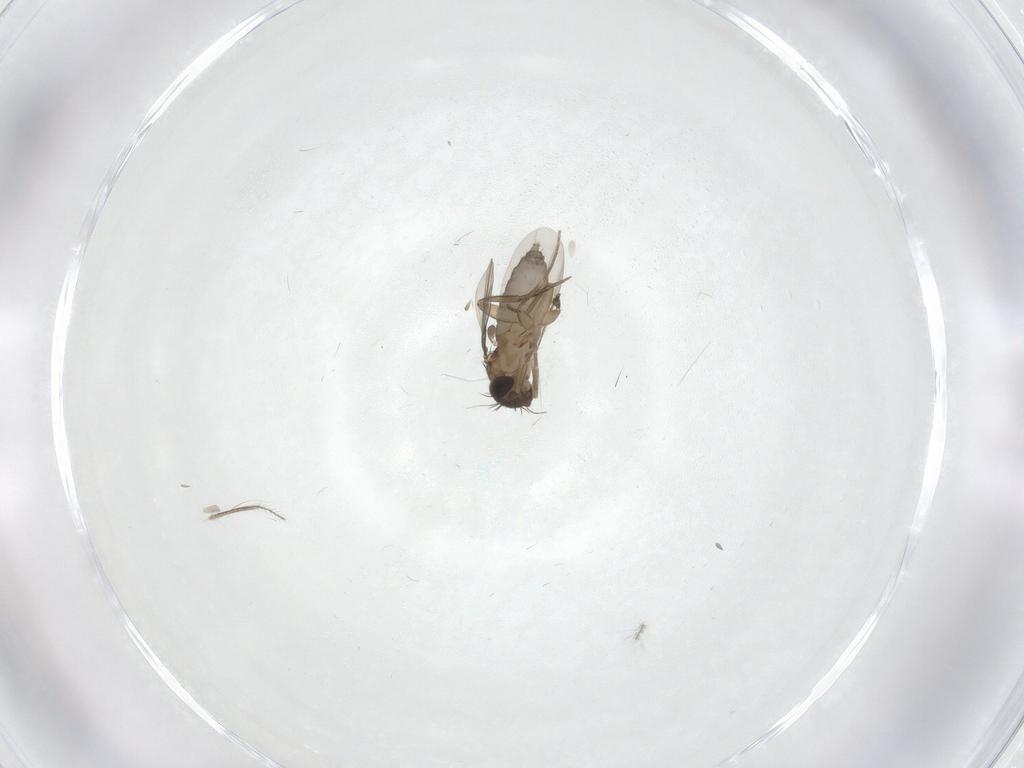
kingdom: Animalia
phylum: Arthropoda
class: Insecta
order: Diptera
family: Phoridae
